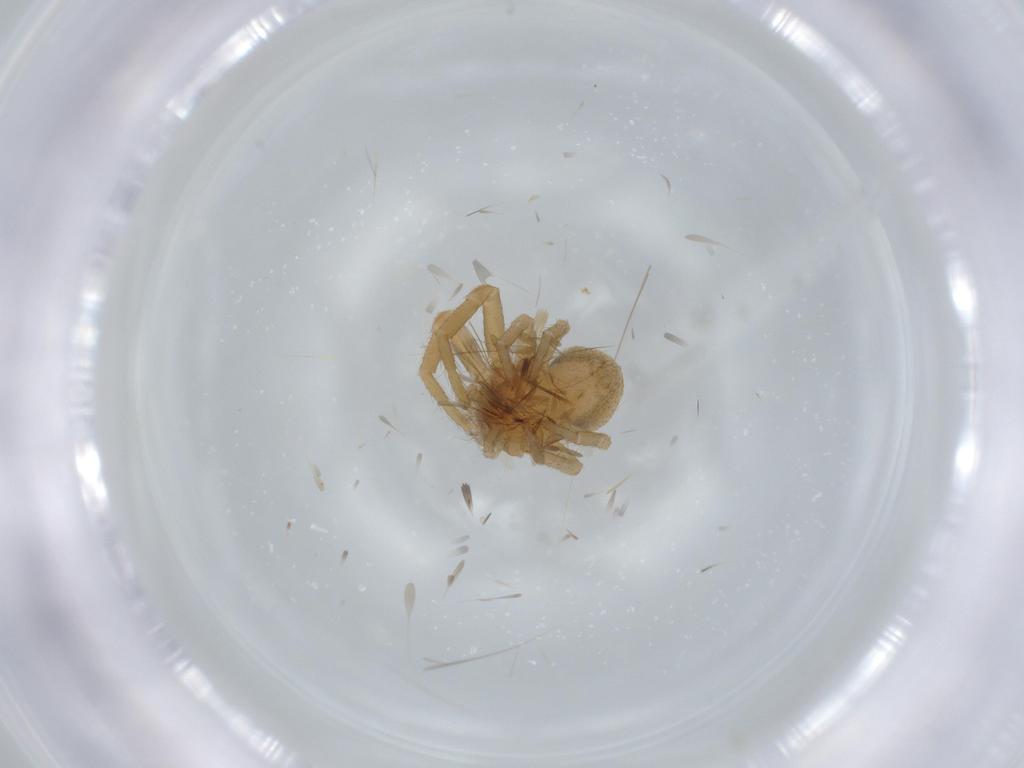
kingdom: Animalia
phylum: Arthropoda
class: Arachnida
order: Araneae
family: Thomisidae
